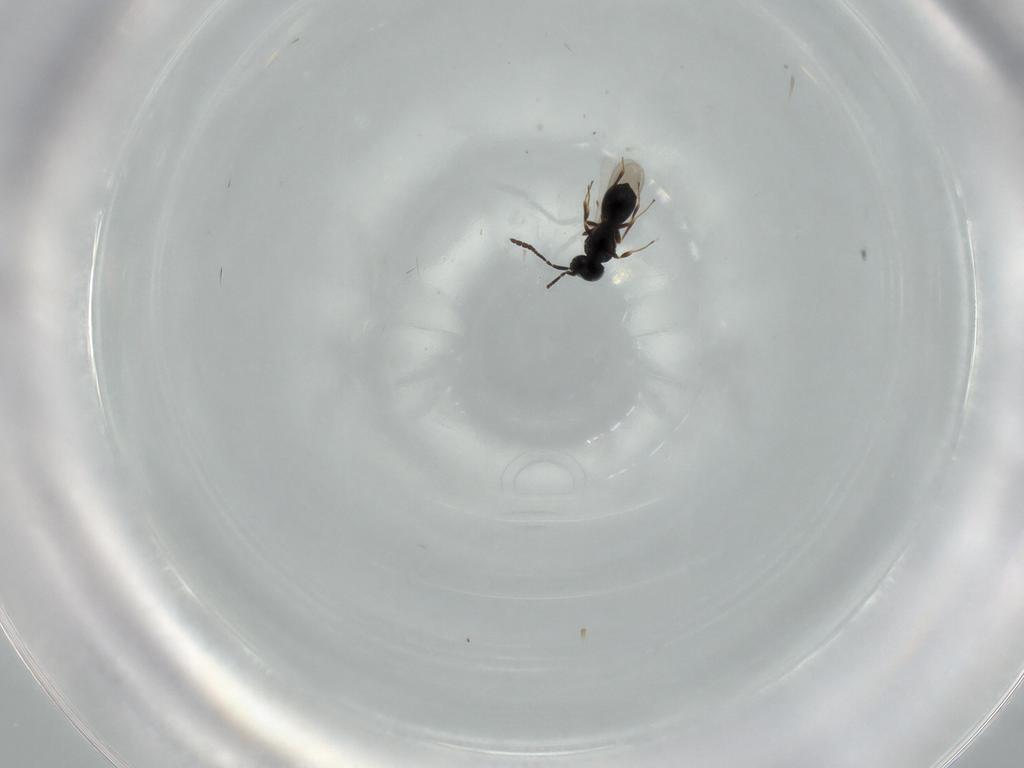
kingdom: Animalia
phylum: Arthropoda
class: Insecta
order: Hymenoptera
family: Scelionidae
